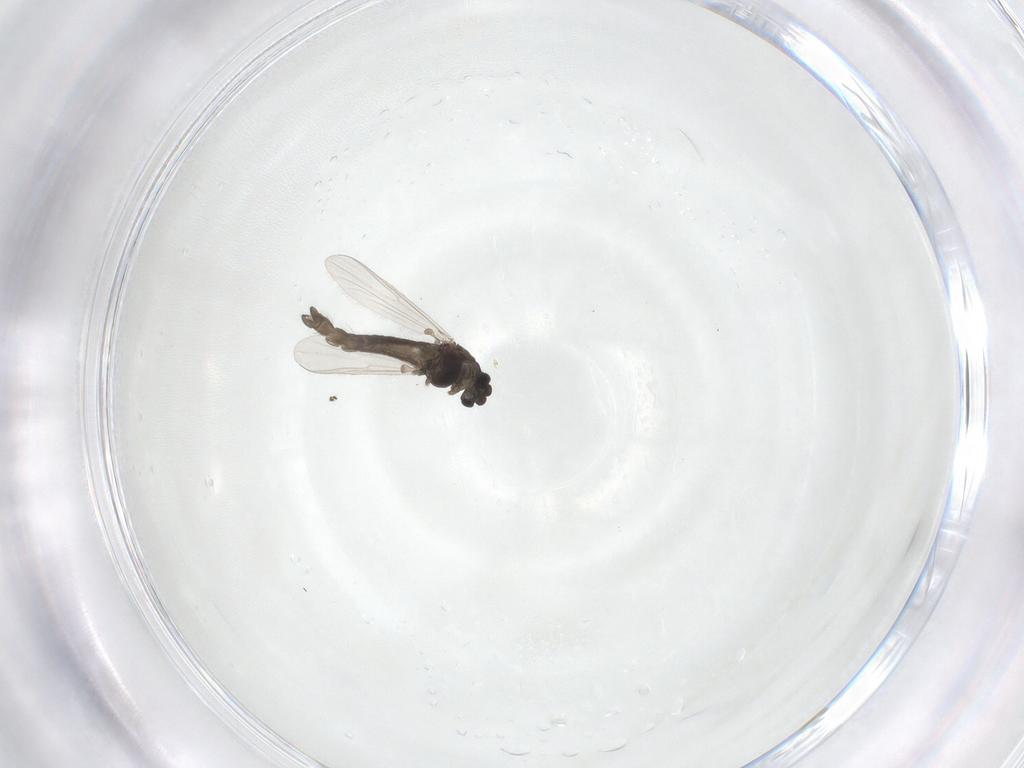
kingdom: Animalia
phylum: Arthropoda
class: Insecta
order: Diptera
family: Chironomidae
